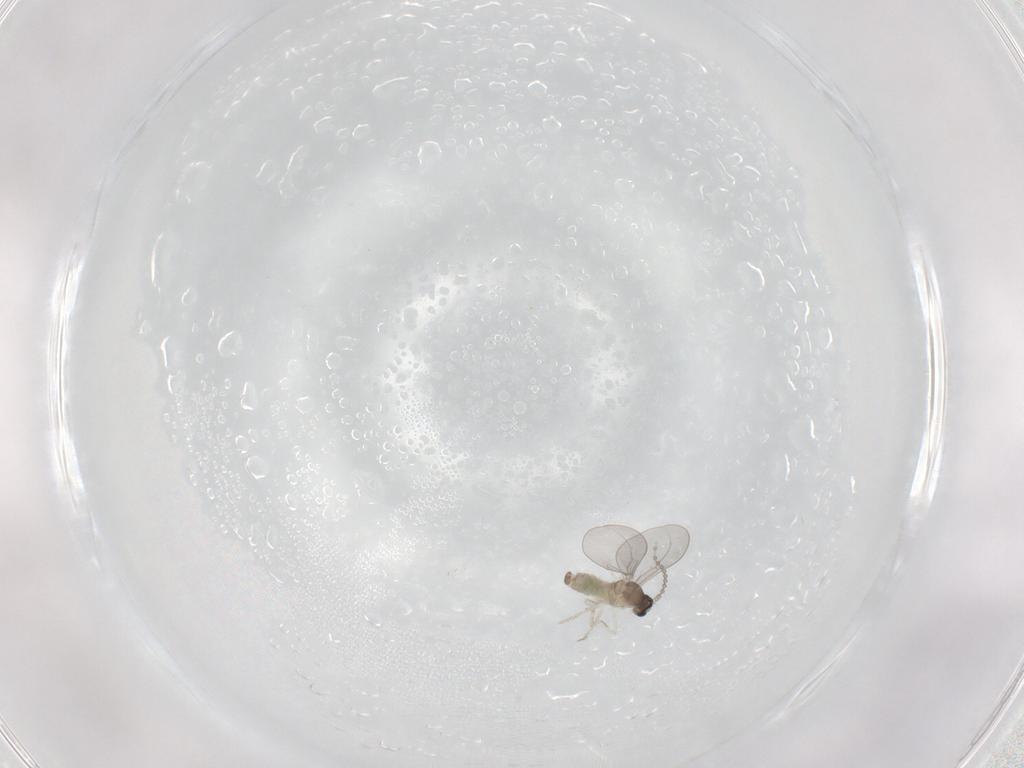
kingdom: Animalia
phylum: Arthropoda
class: Insecta
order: Diptera
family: Cecidomyiidae
